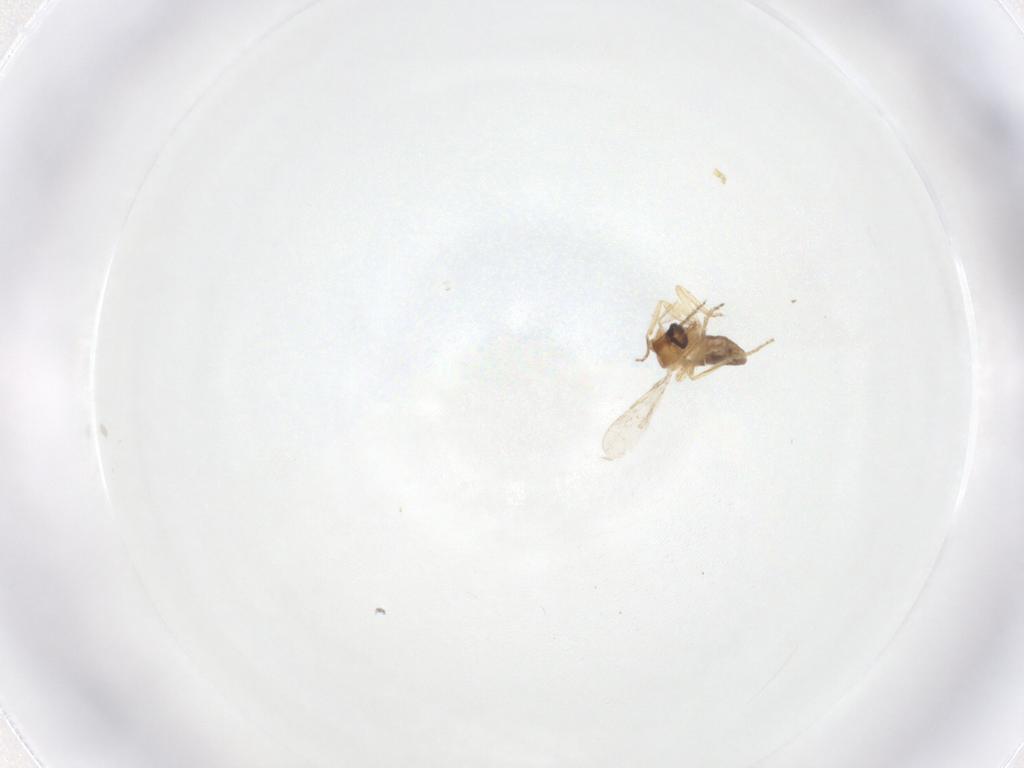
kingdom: Animalia
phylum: Arthropoda
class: Insecta
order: Diptera
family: Ceratopogonidae
